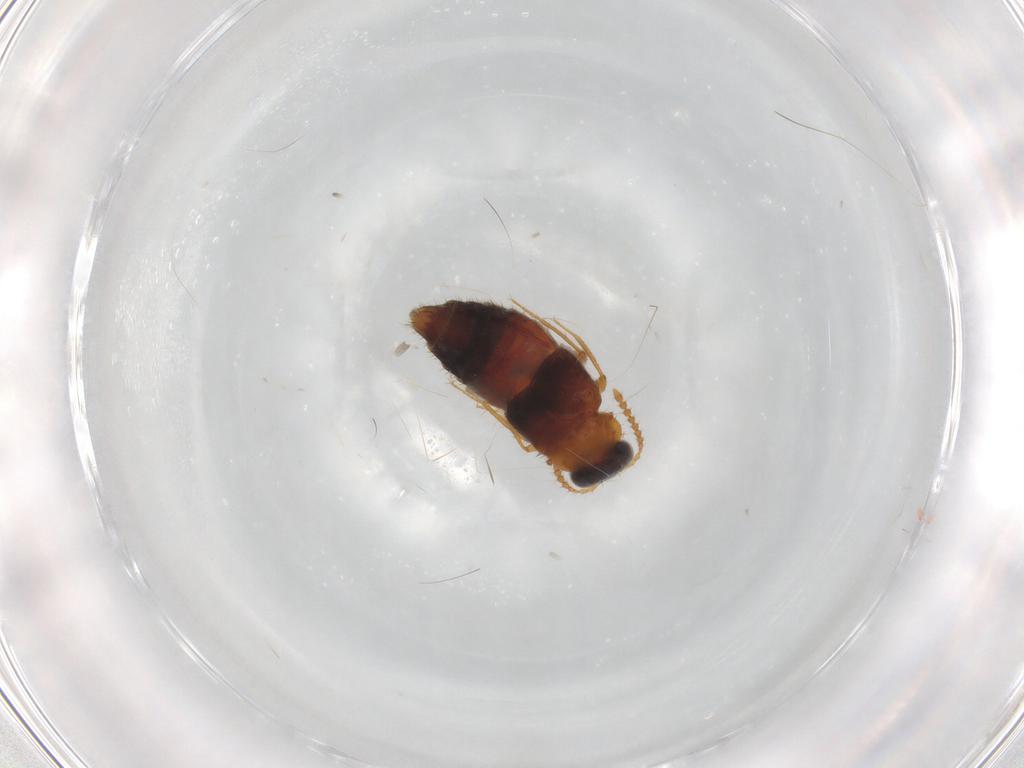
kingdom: Animalia
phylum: Arthropoda
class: Insecta
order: Coleoptera
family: Staphylinidae
